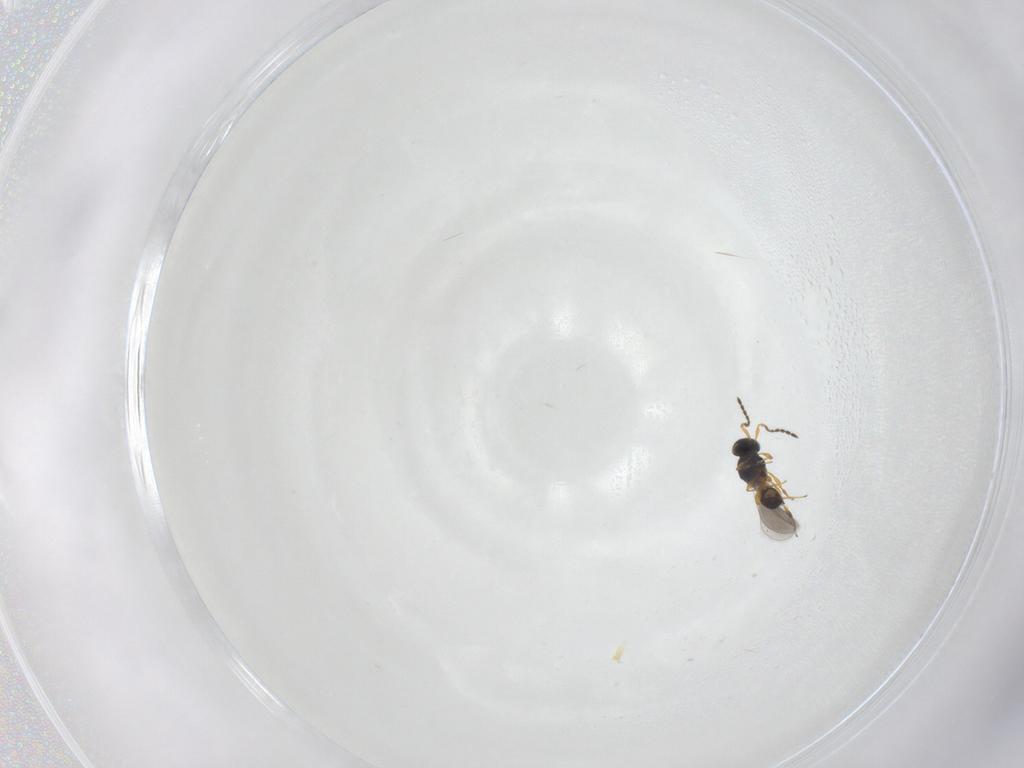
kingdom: Animalia
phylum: Arthropoda
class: Insecta
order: Hymenoptera
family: Platygastridae
